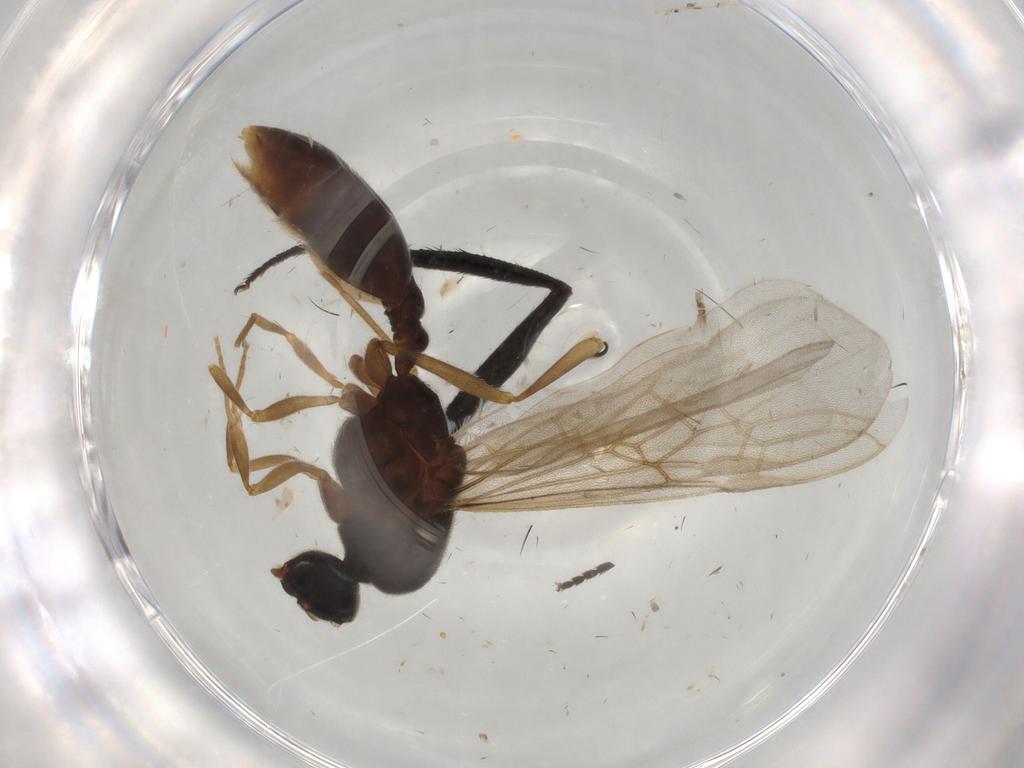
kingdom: Animalia
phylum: Arthropoda
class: Insecta
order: Hymenoptera
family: Formicidae
